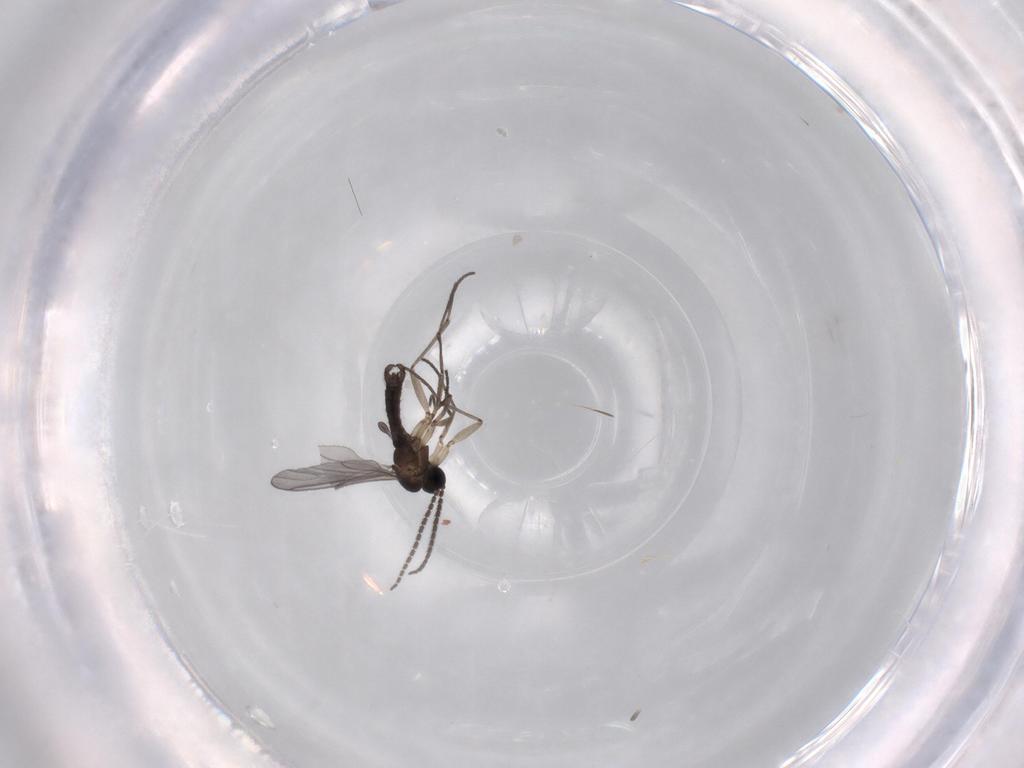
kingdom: Animalia
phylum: Arthropoda
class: Insecta
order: Diptera
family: Sciaridae
